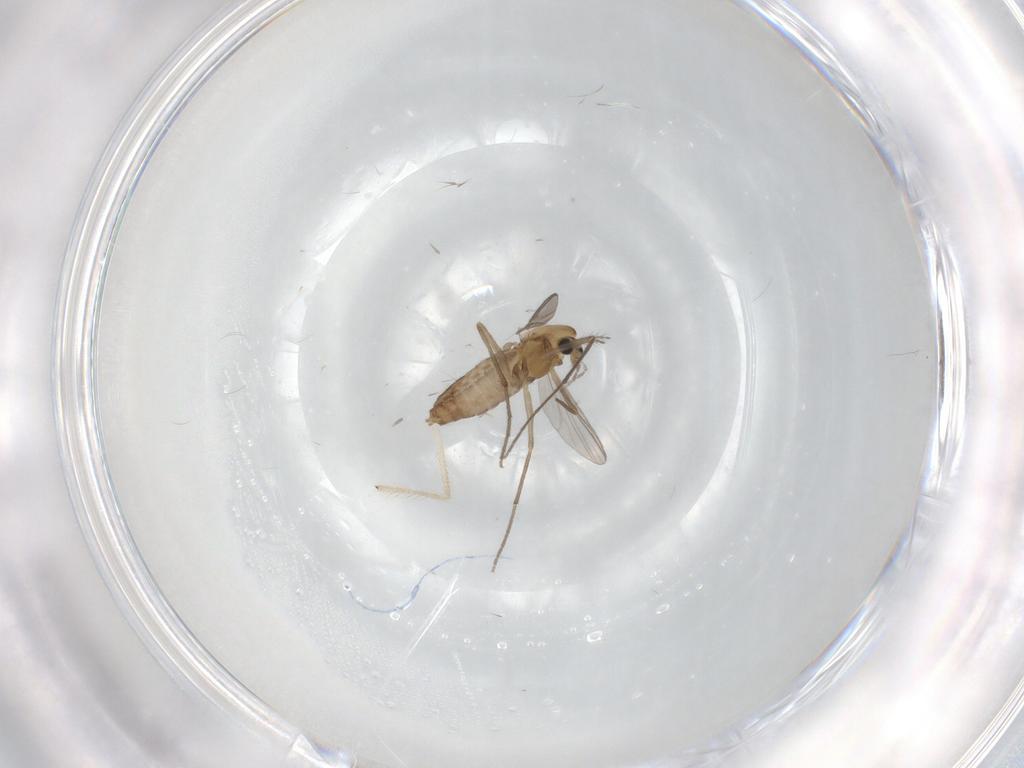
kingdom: Animalia
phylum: Arthropoda
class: Insecta
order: Diptera
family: Chironomidae
